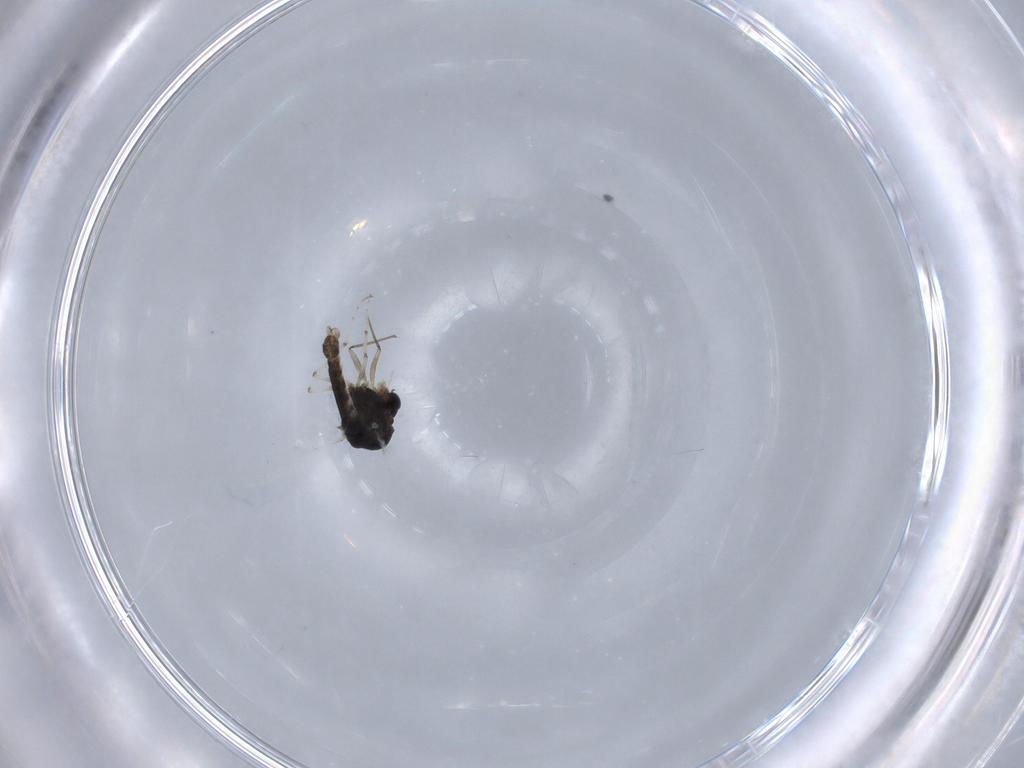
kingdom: Animalia
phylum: Arthropoda
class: Insecta
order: Diptera
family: Chironomidae
